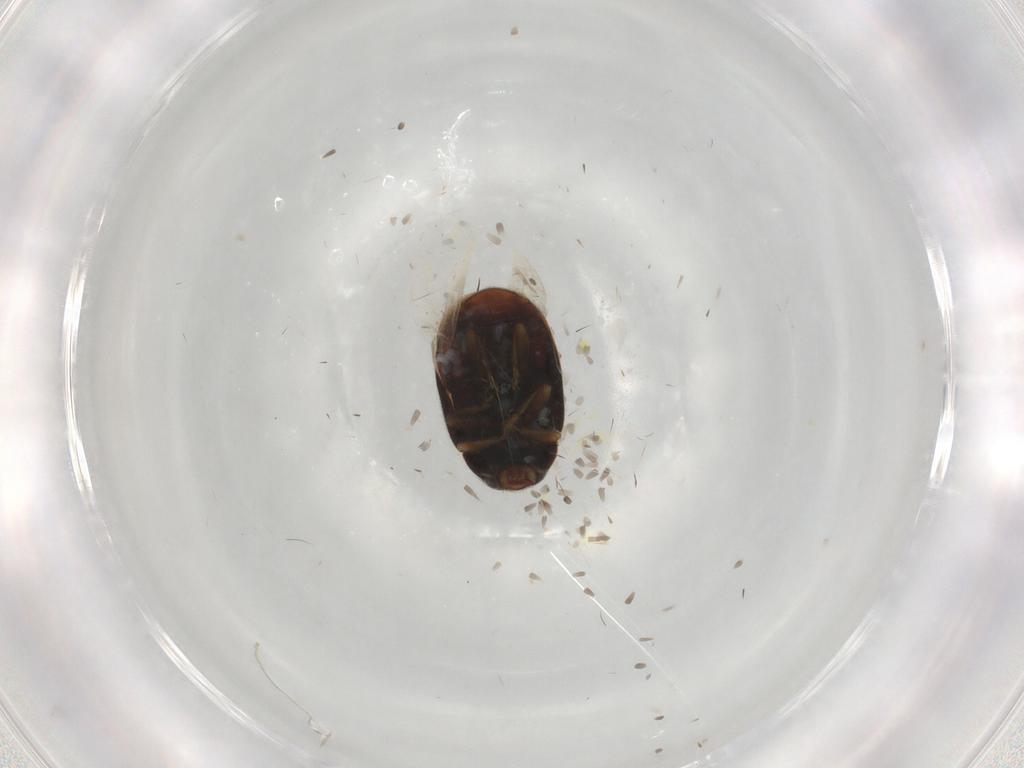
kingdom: Animalia
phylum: Arthropoda
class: Insecta
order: Coleoptera
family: Coccinellidae
